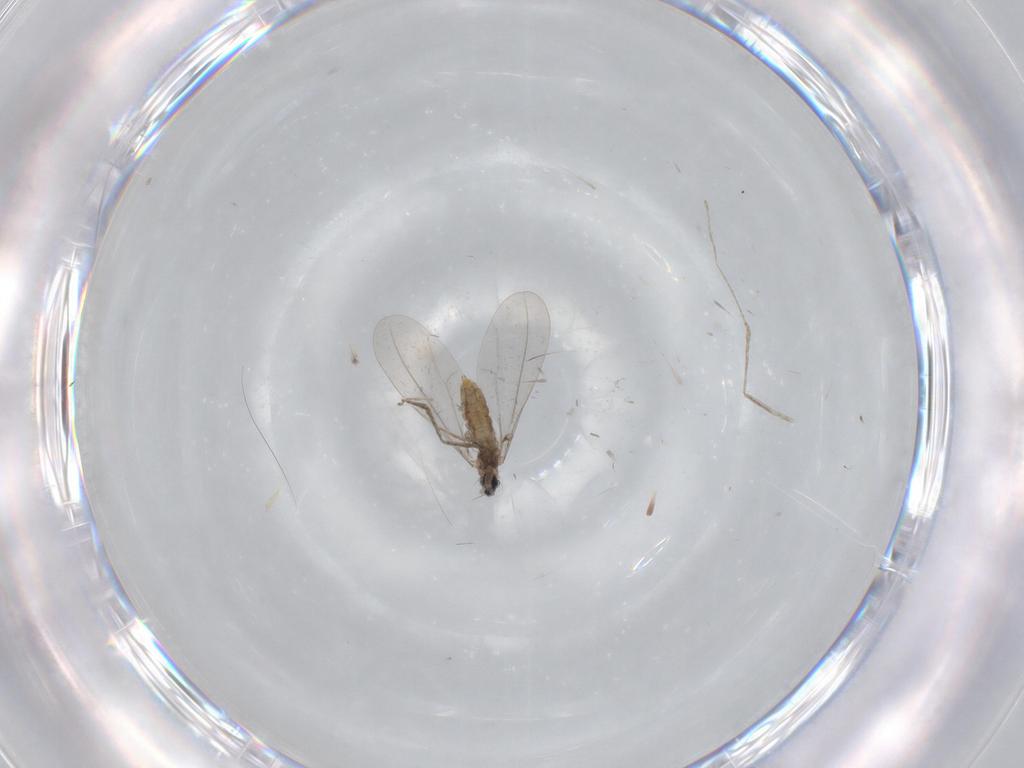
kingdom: Animalia
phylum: Arthropoda
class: Insecta
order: Diptera
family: Cecidomyiidae
